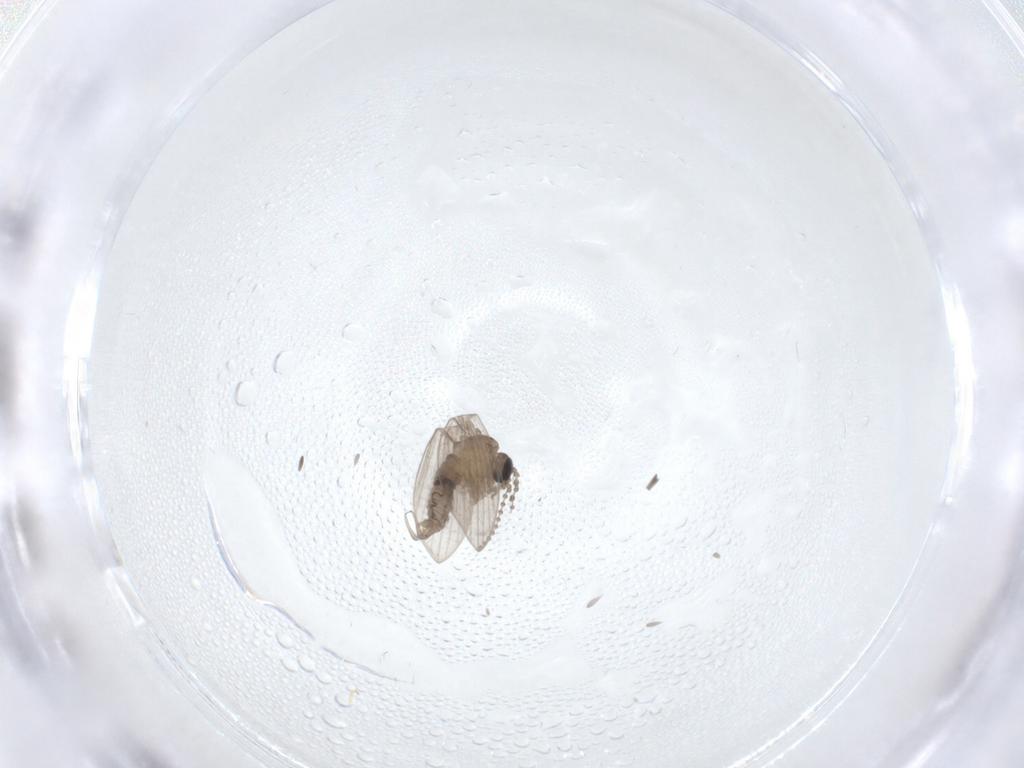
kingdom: Animalia
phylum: Arthropoda
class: Insecta
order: Diptera
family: Psychodidae
